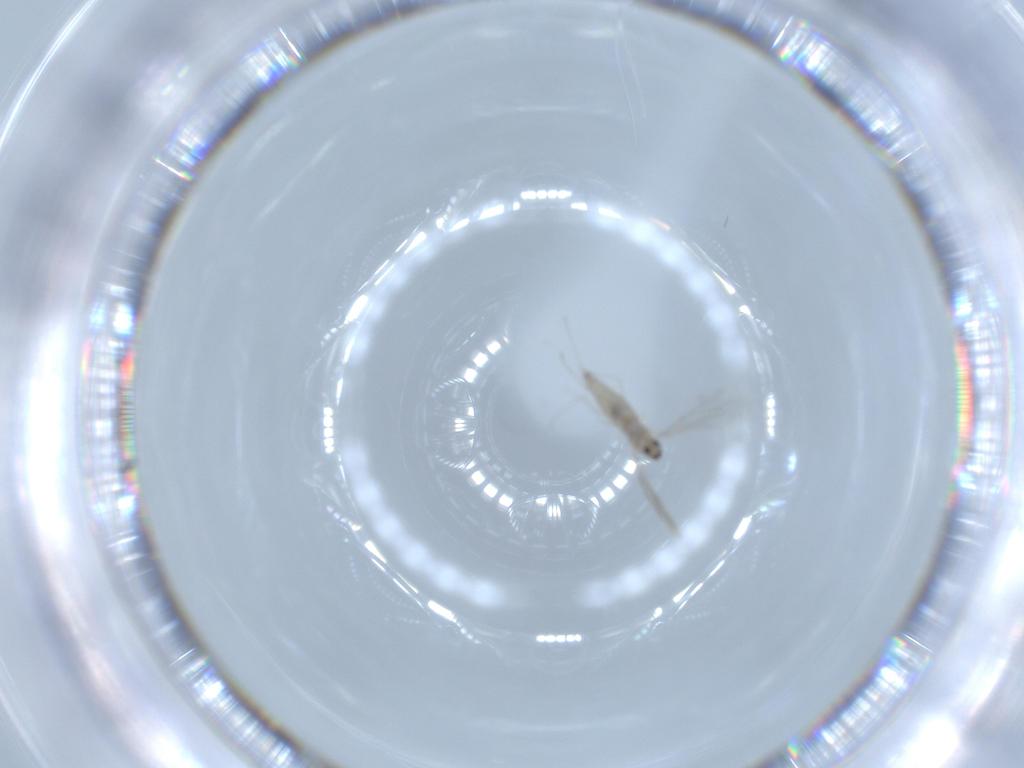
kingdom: Animalia
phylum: Arthropoda
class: Insecta
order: Diptera
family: Cecidomyiidae
